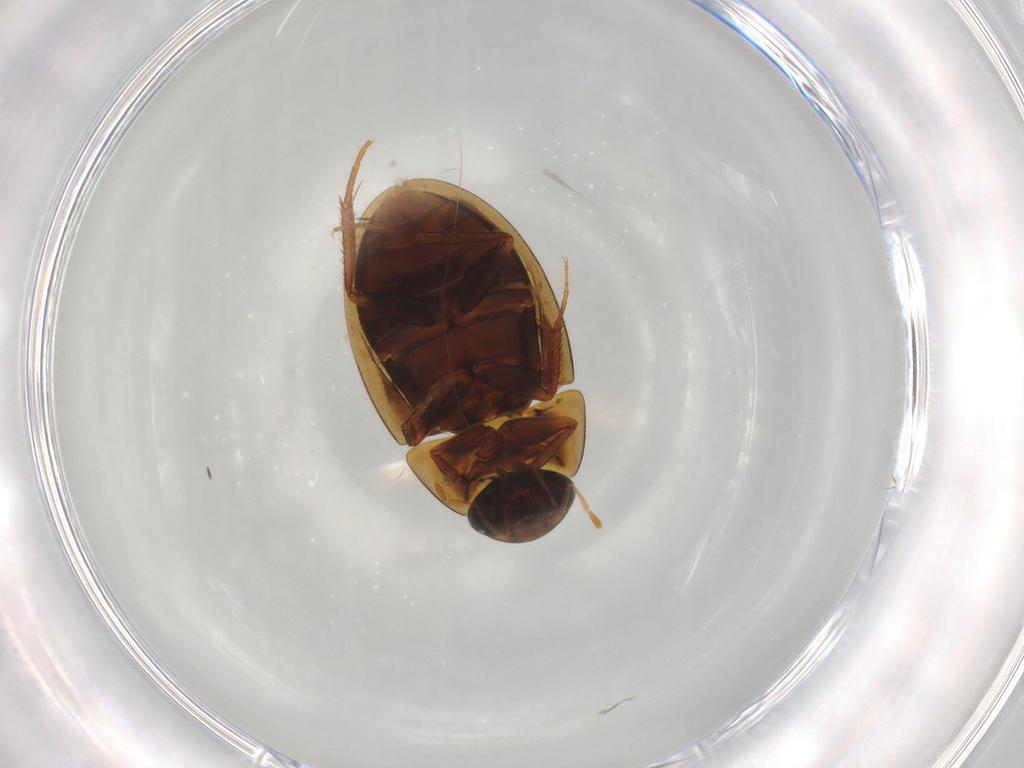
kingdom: Animalia
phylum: Arthropoda
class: Insecta
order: Coleoptera
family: Hydrophilidae
